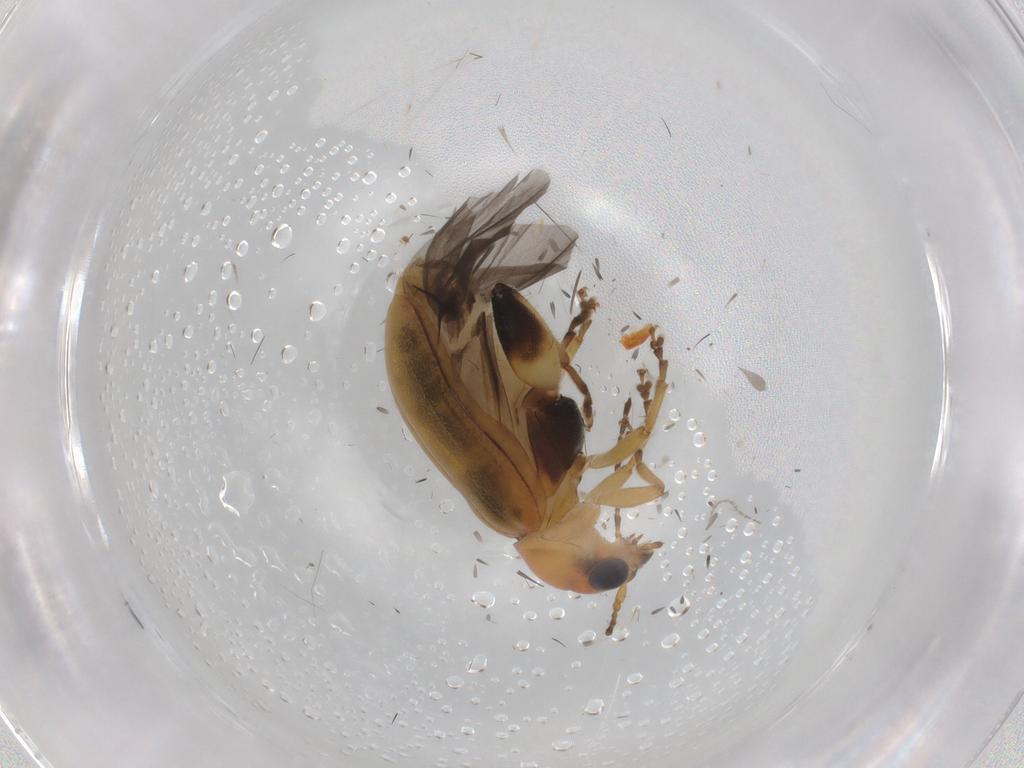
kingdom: Animalia
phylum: Arthropoda
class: Insecta
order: Coleoptera
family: Chrysomelidae
